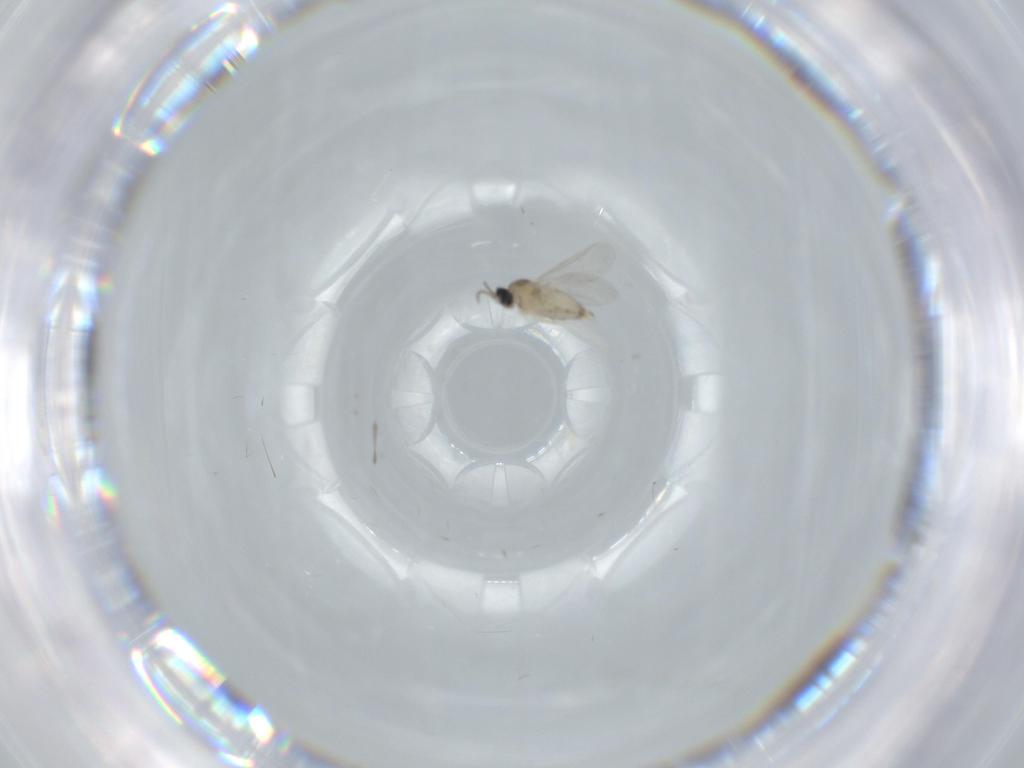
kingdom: Animalia
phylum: Arthropoda
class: Insecta
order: Diptera
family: Cecidomyiidae
